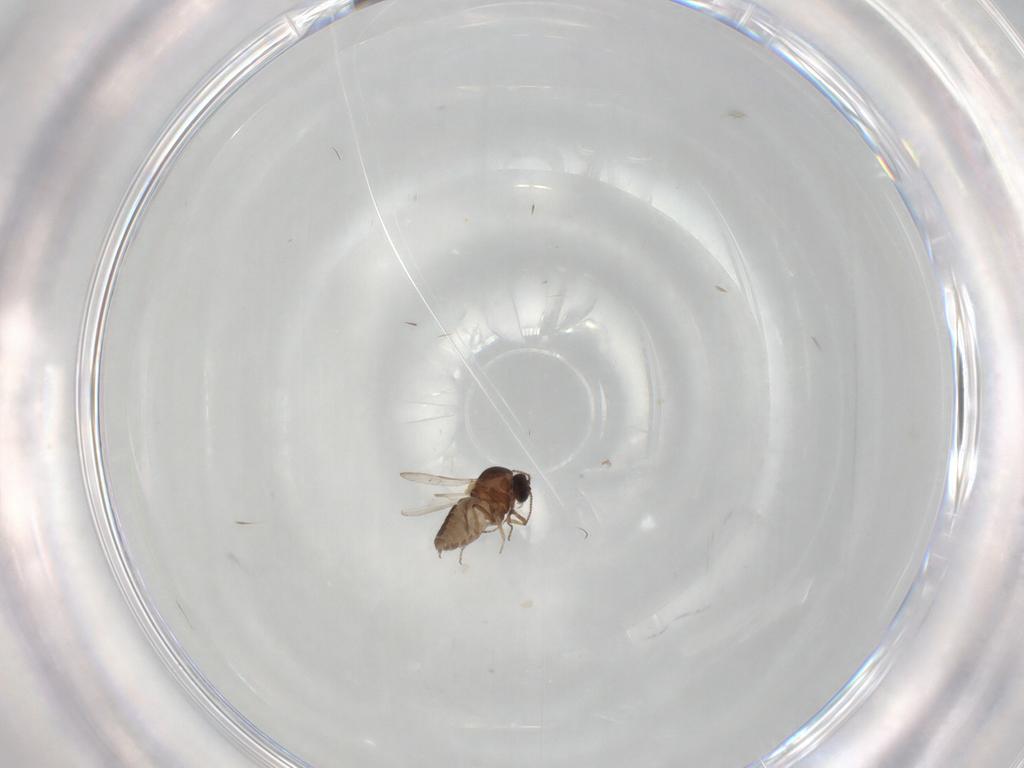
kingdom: Animalia
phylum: Arthropoda
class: Insecta
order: Diptera
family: Ceratopogonidae
